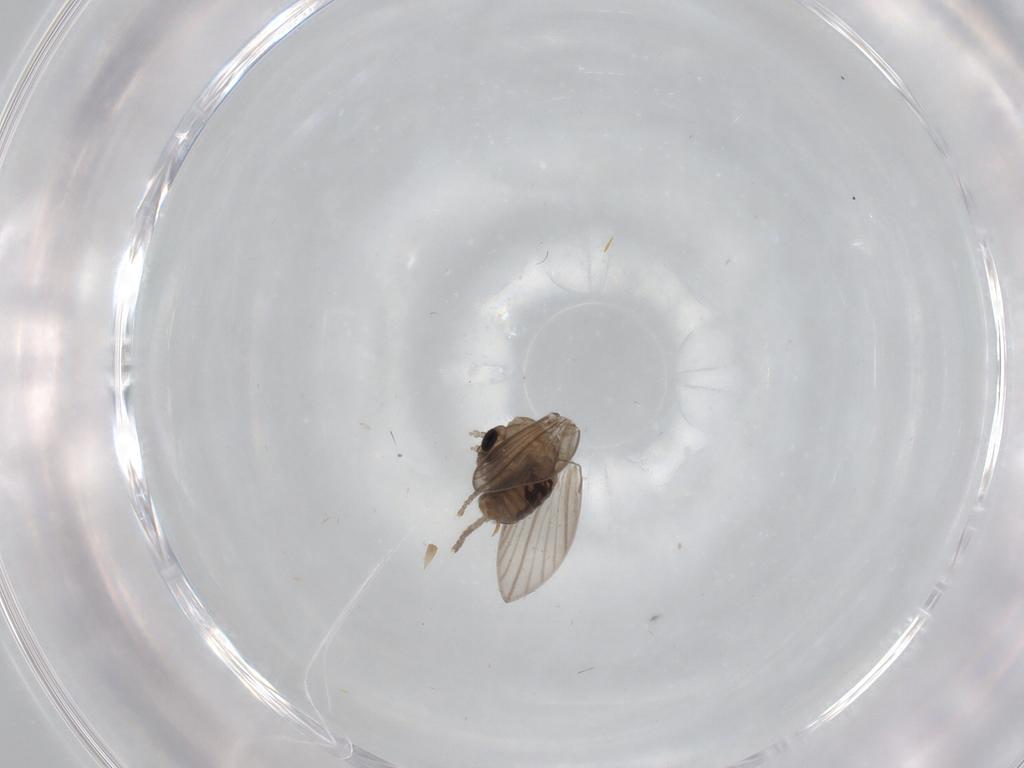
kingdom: Animalia
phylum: Arthropoda
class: Insecta
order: Diptera
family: Psychodidae
